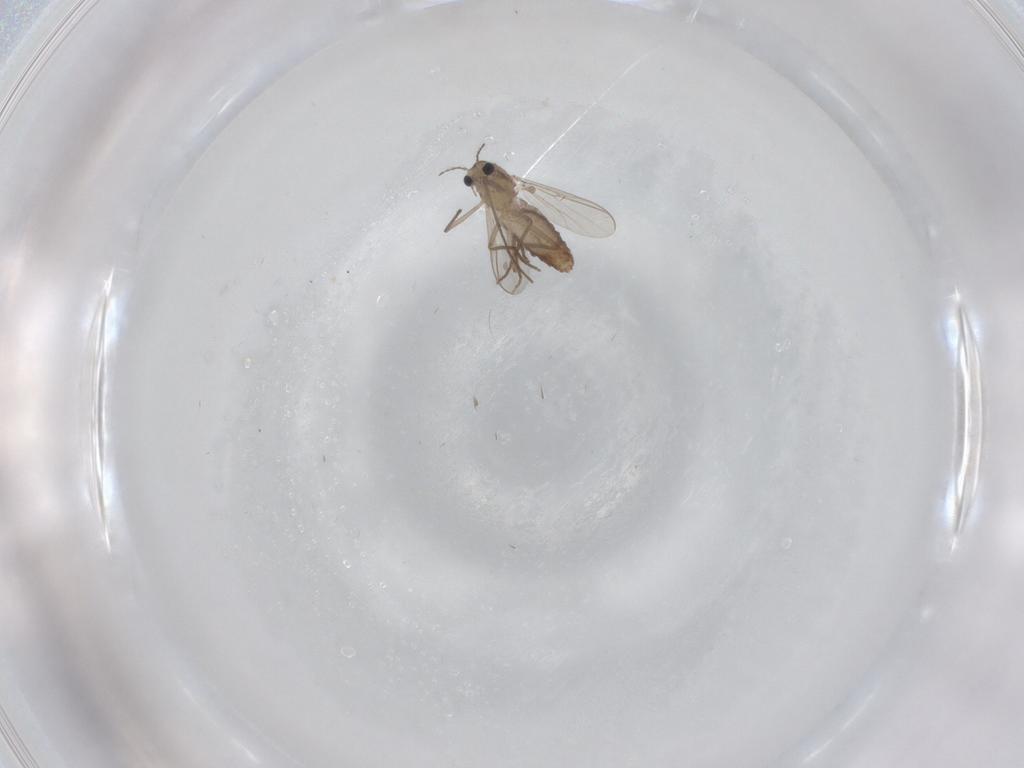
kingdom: Animalia
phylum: Arthropoda
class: Insecta
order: Diptera
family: Chironomidae
